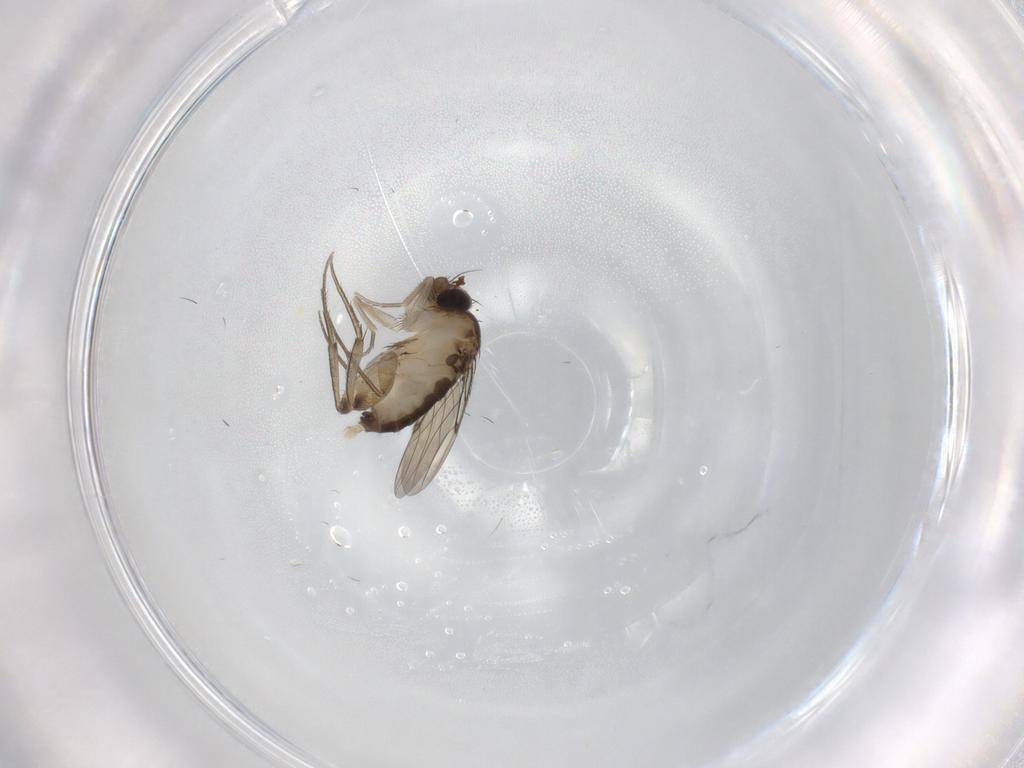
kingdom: Animalia
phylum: Arthropoda
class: Insecta
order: Diptera
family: Phoridae
